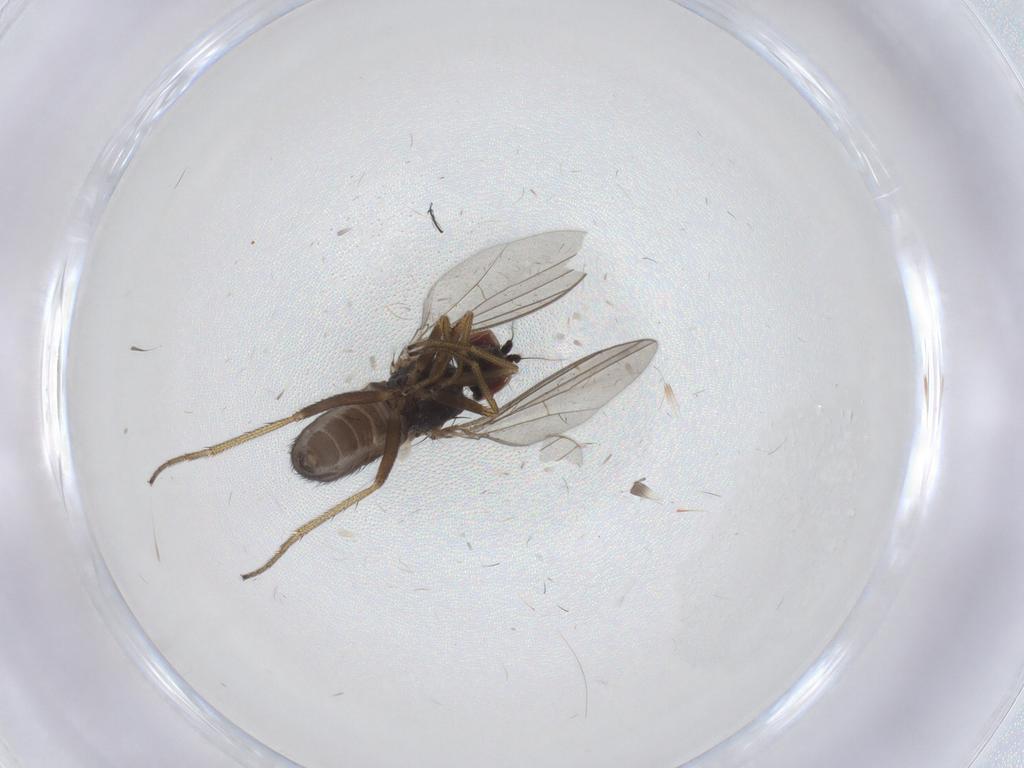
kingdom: Animalia
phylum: Arthropoda
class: Insecta
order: Diptera
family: Dolichopodidae
